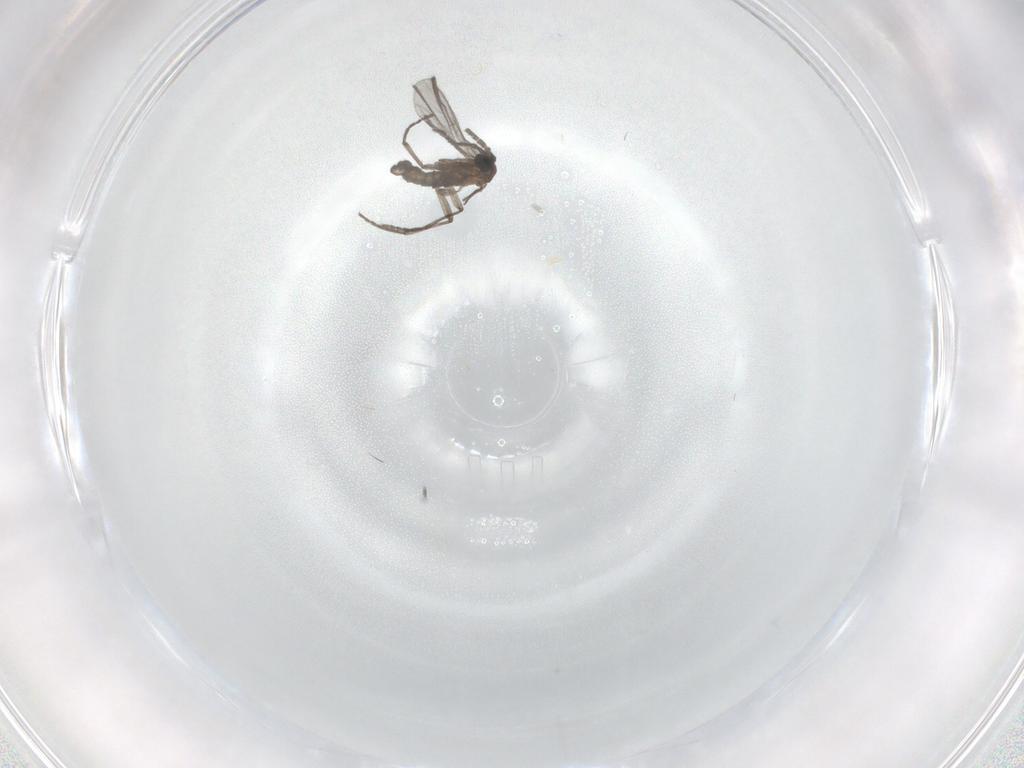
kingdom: Animalia
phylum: Arthropoda
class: Insecta
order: Diptera
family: Sciaridae
